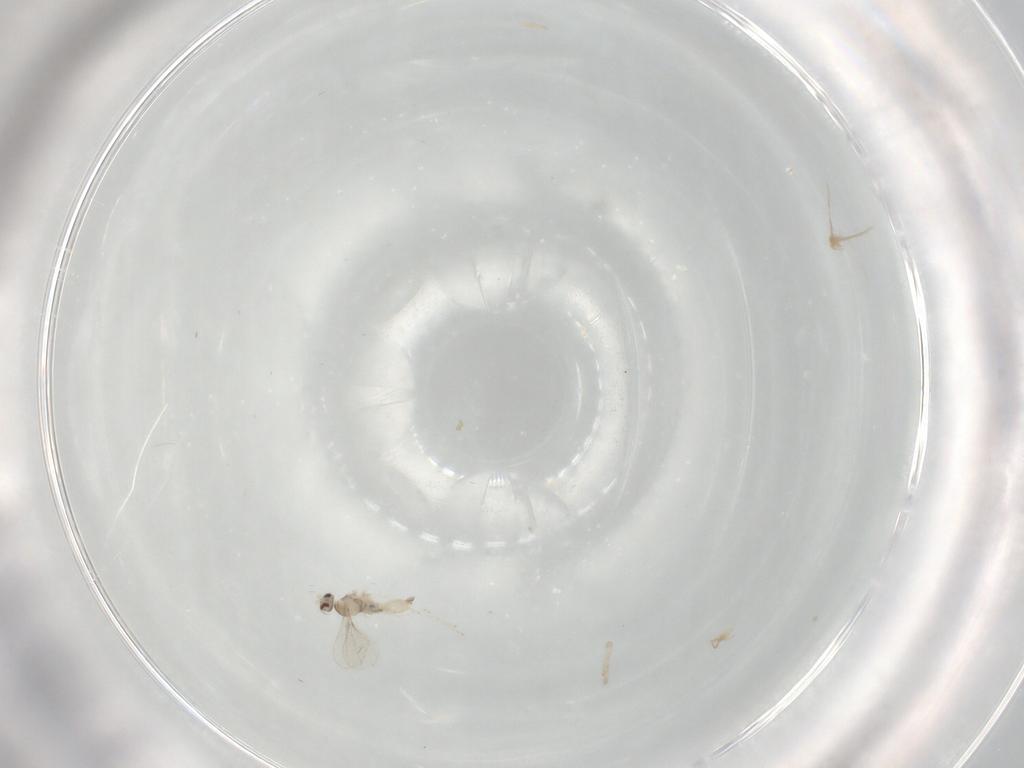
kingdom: Animalia
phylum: Arthropoda
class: Insecta
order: Diptera
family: Cecidomyiidae
